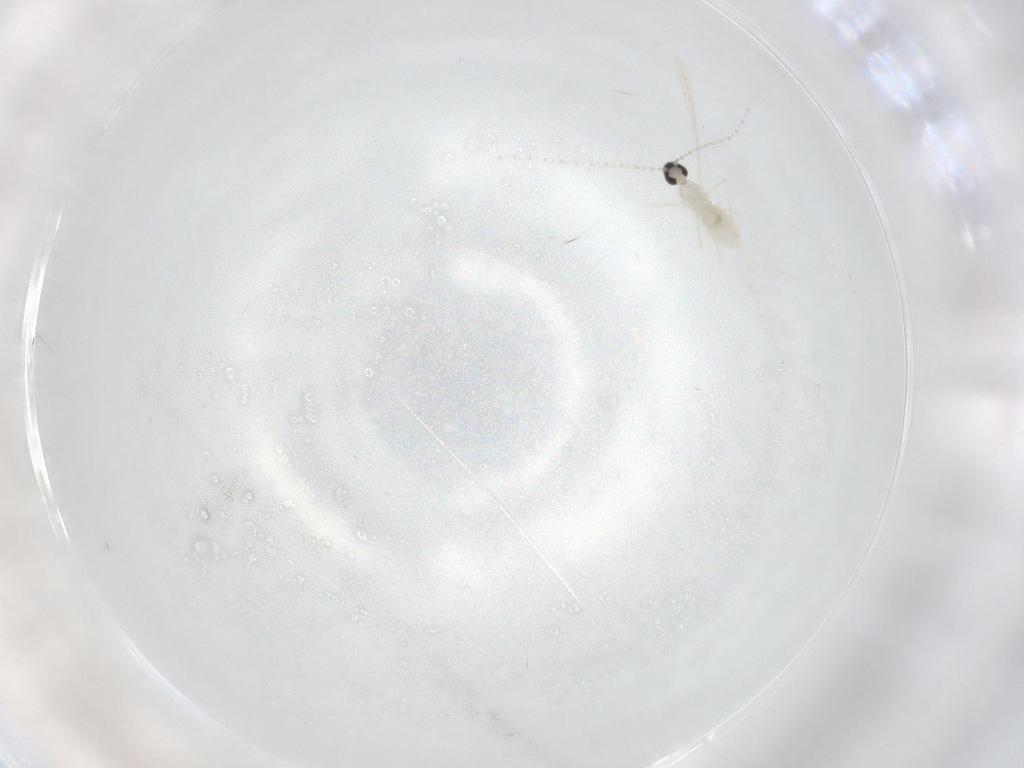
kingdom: Animalia
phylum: Arthropoda
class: Insecta
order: Diptera
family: Cecidomyiidae
